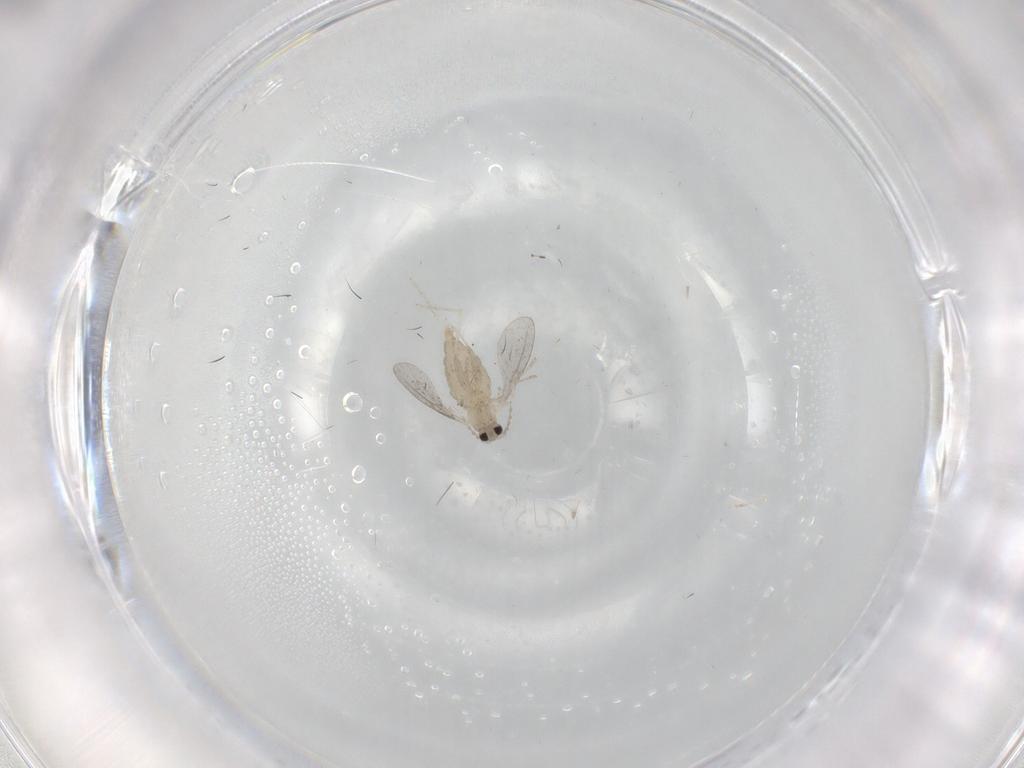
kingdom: Animalia
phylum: Arthropoda
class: Insecta
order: Diptera
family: Cecidomyiidae
